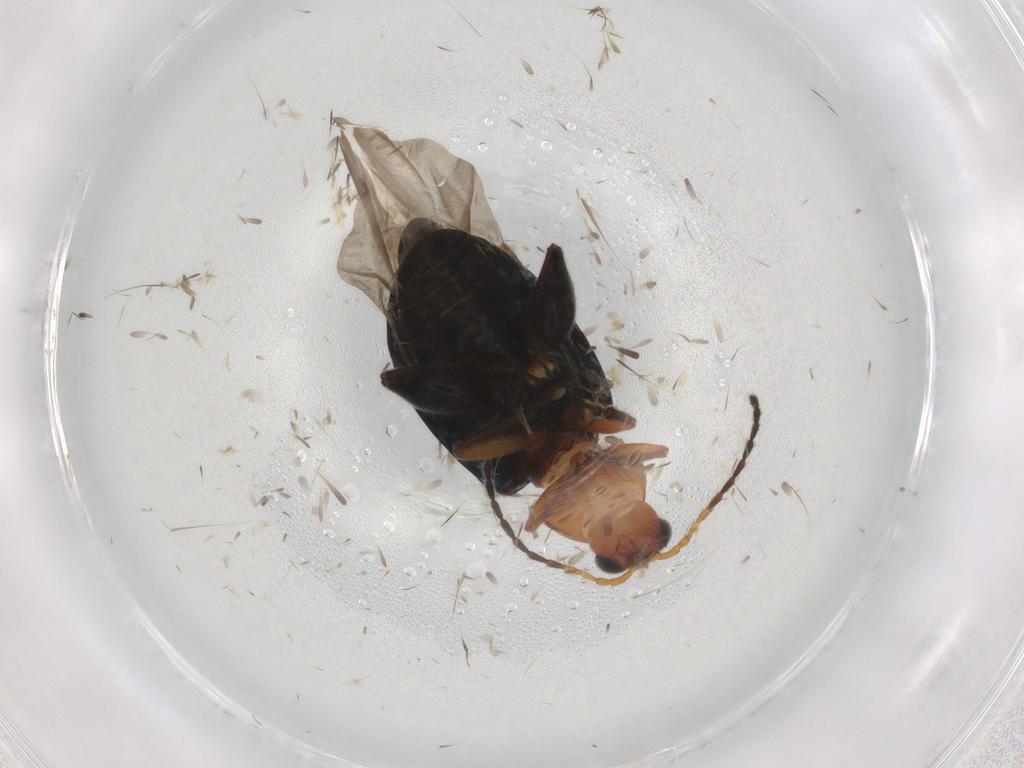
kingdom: Animalia
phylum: Arthropoda
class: Insecta
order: Coleoptera
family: Chrysomelidae
